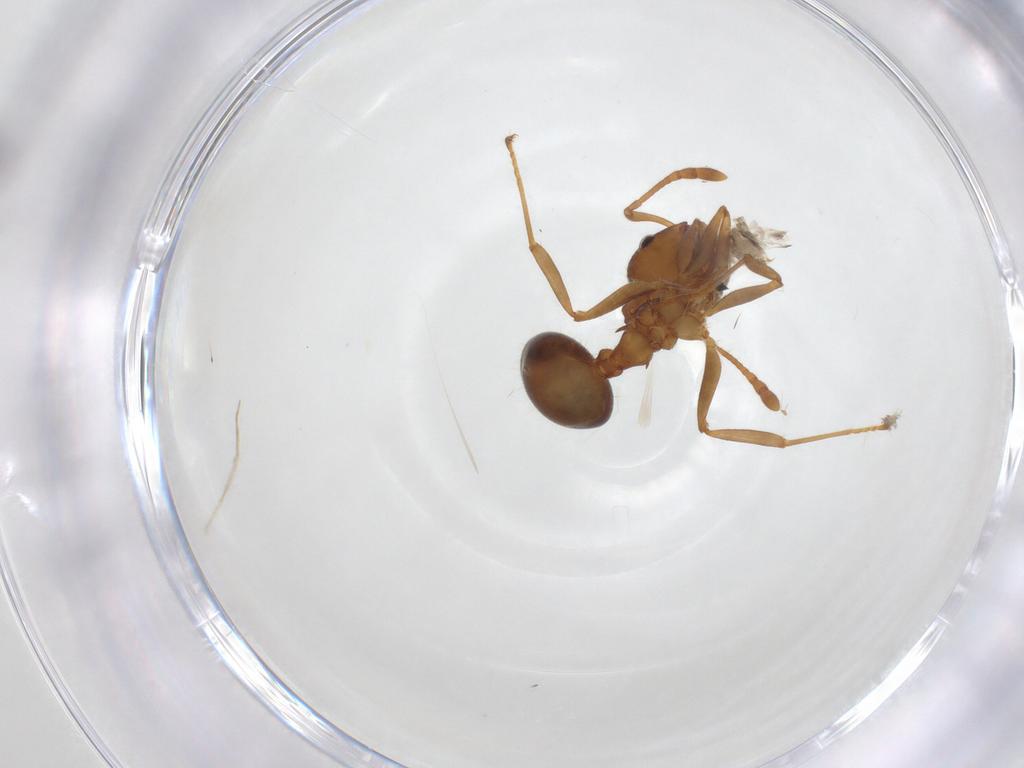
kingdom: Animalia
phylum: Arthropoda
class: Insecta
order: Hymenoptera
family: Formicidae
